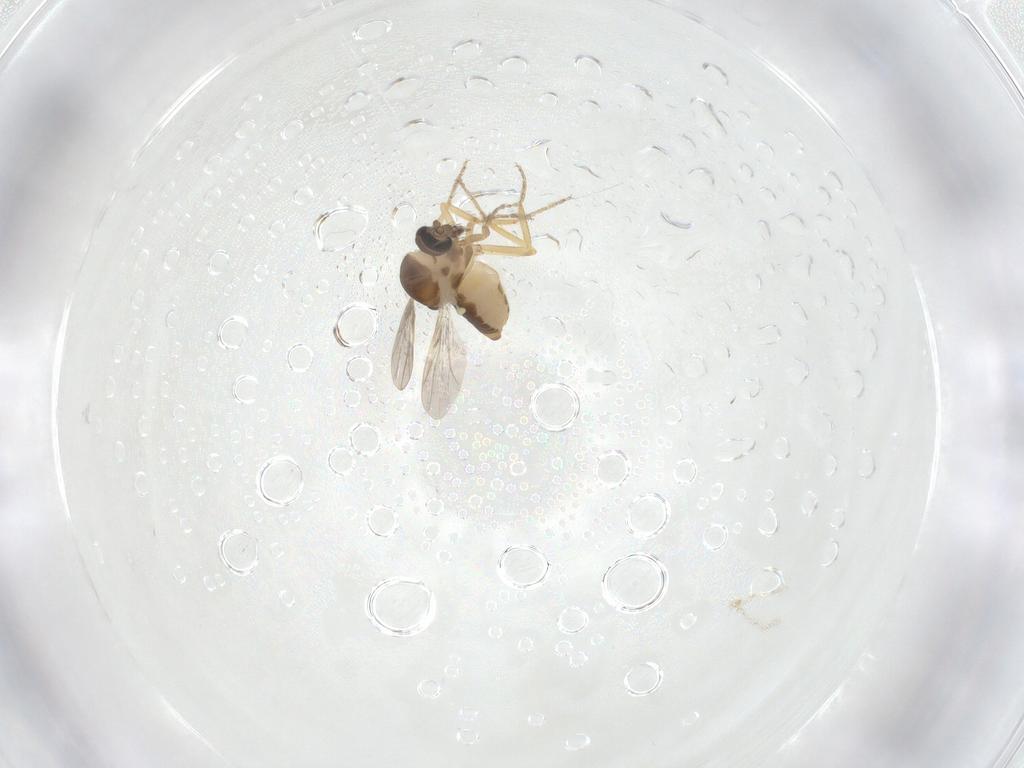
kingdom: Animalia
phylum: Arthropoda
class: Insecta
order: Diptera
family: Ceratopogonidae
